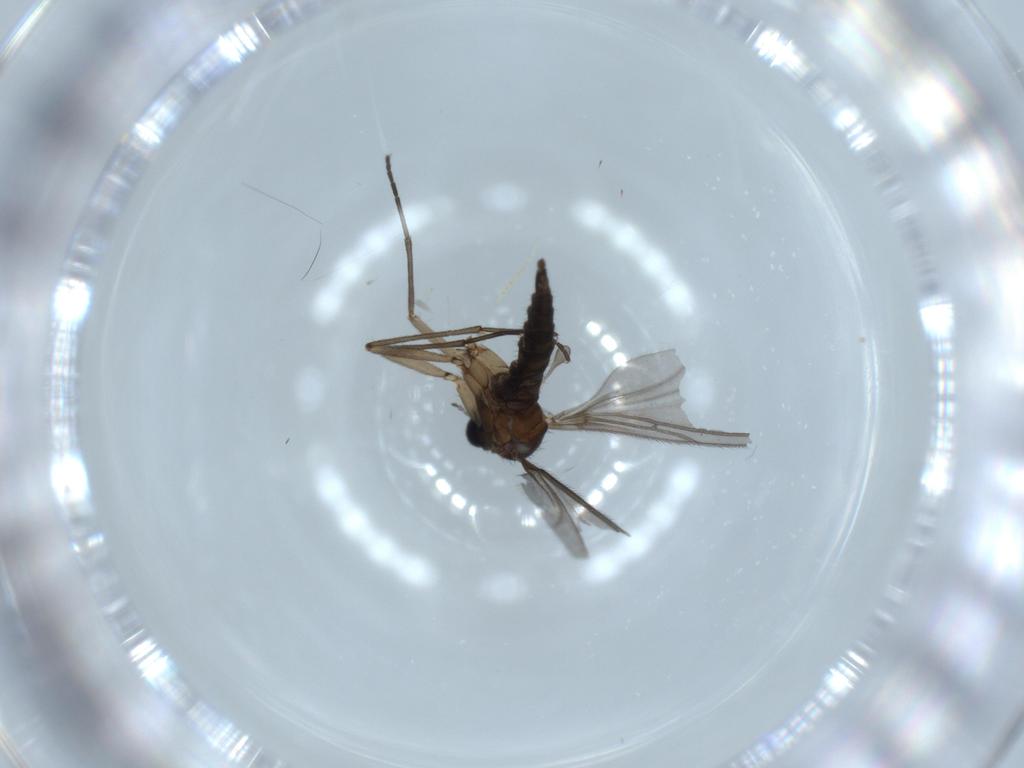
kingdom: Animalia
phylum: Arthropoda
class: Insecta
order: Diptera
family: Sciaridae
